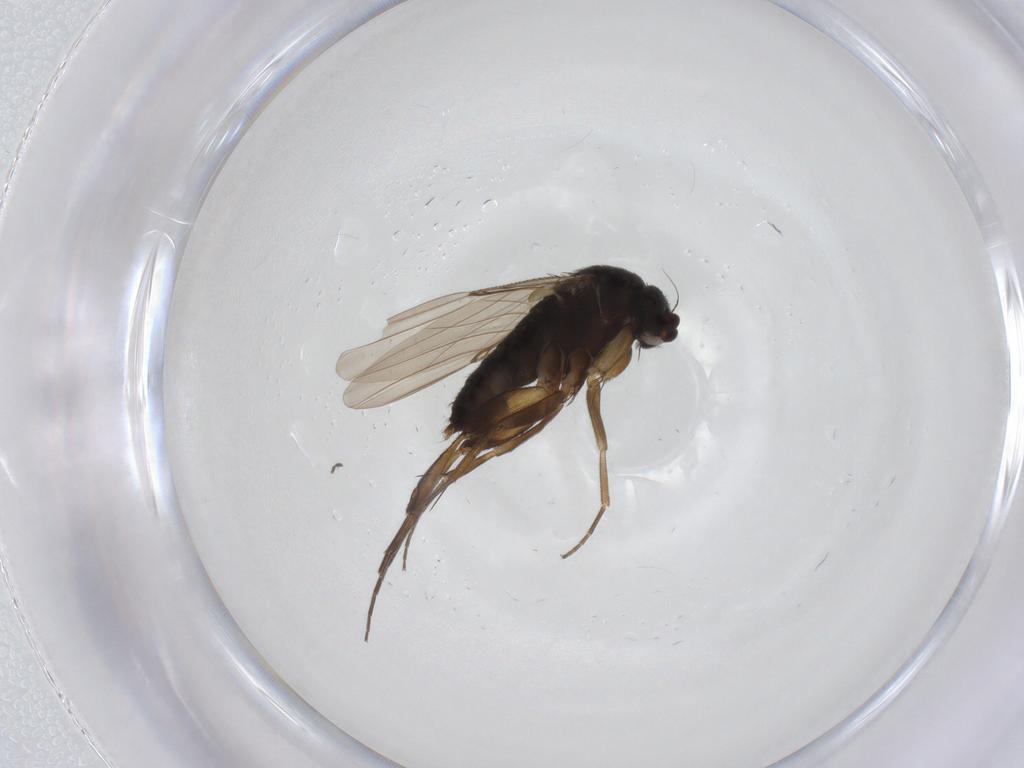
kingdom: Animalia
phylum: Arthropoda
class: Insecta
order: Diptera
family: Phoridae
